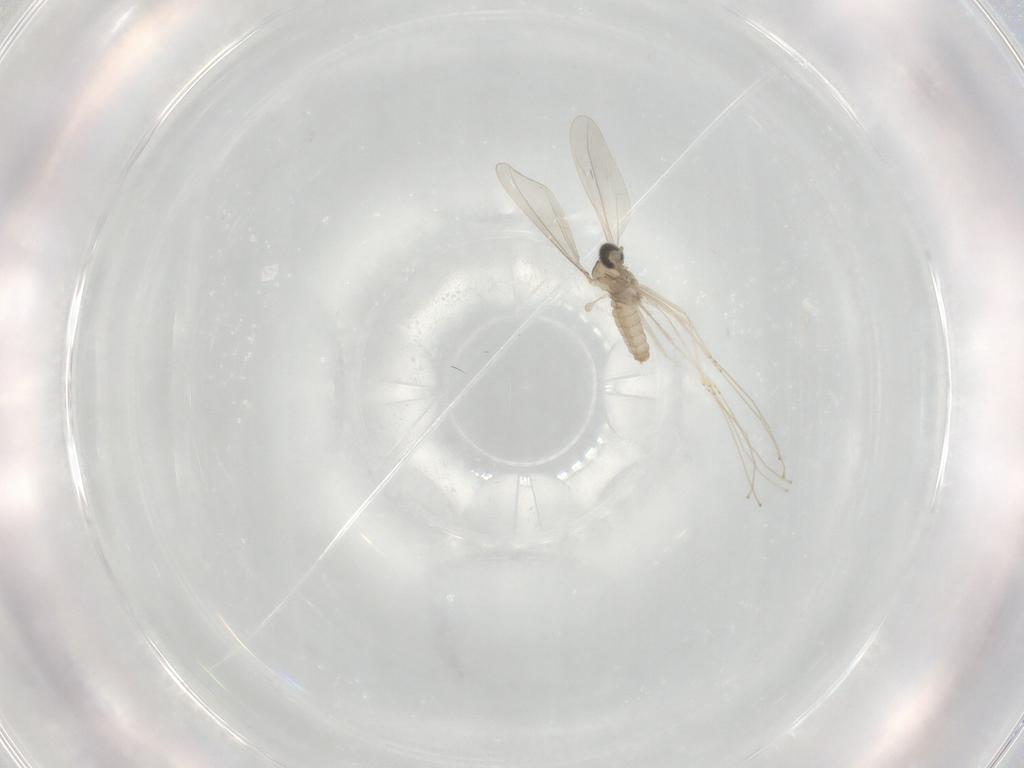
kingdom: Animalia
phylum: Arthropoda
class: Insecta
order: Diptera
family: Cecidomyiidae
